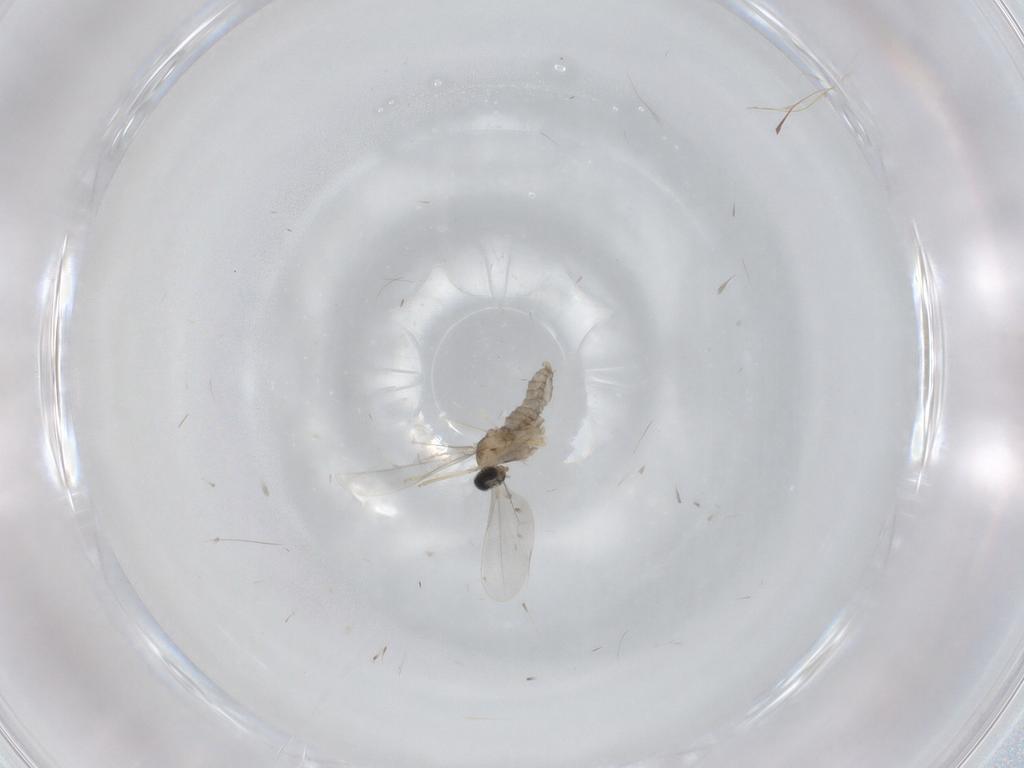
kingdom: Animalia
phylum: Arthropoda
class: Insecta
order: Diptera
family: Cecidomyiidae
